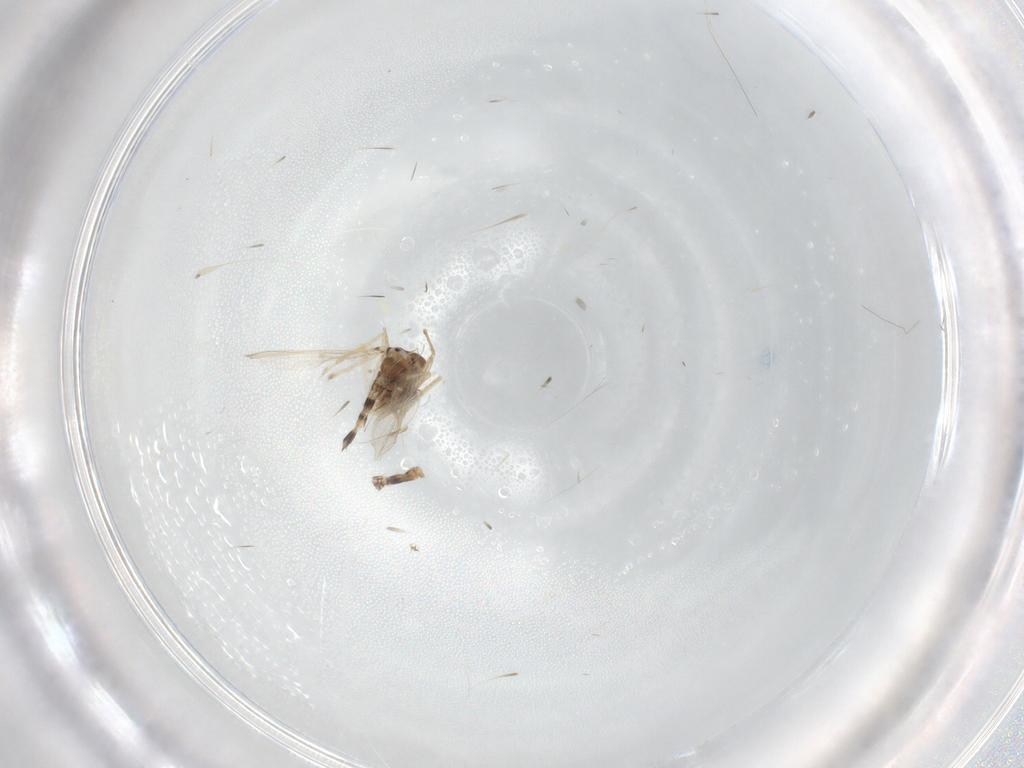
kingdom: Animalia
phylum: Arthropoda
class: Insecta
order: Diptera
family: Chironomidae
